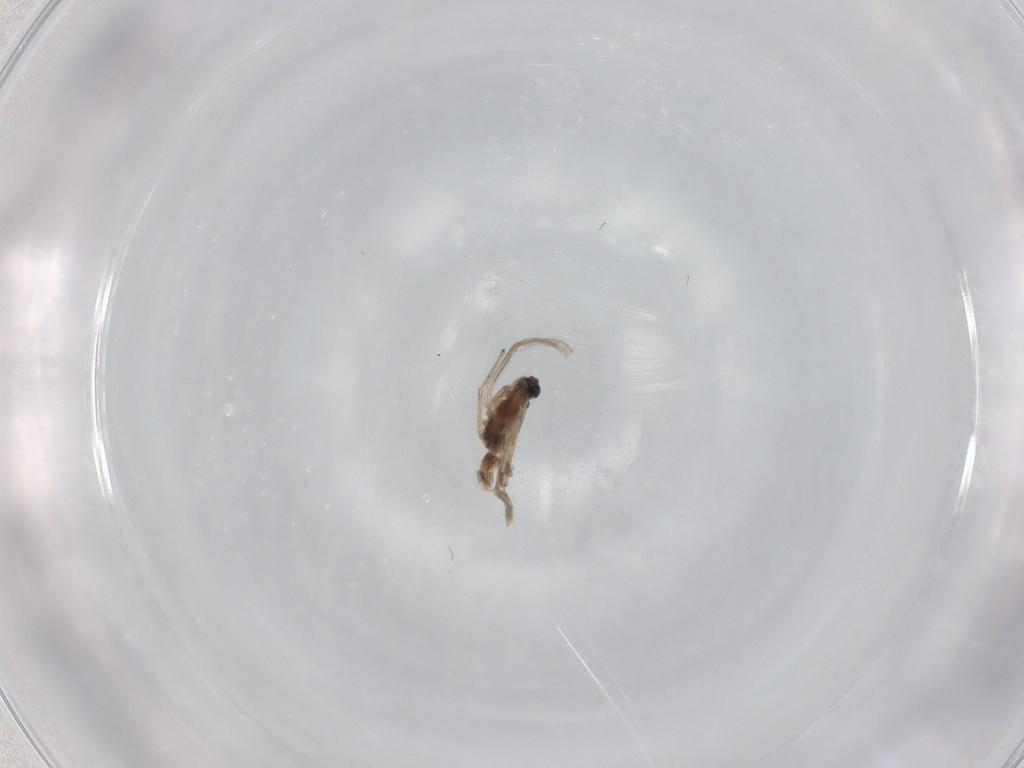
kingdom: Animalia
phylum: Arthropoda
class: Insecta
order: Diptera
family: Chironomidae
